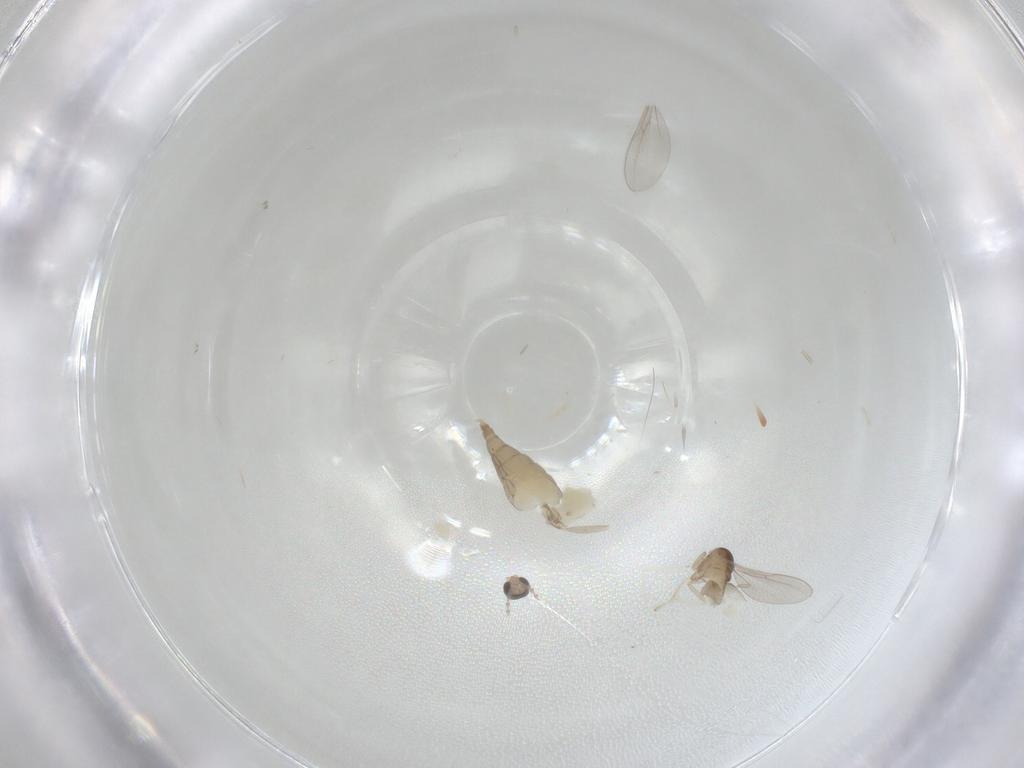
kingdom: Animalia
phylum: Arthropoda
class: Insecta
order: Diptera
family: Cecidomyiidae
